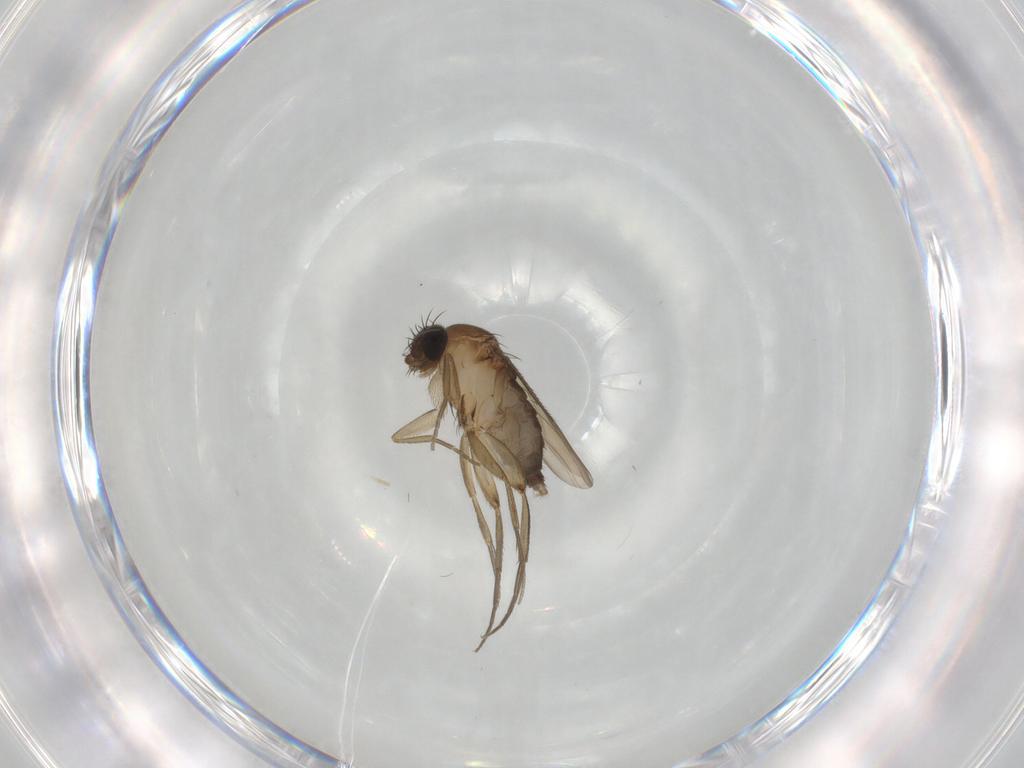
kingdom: Animalia
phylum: Arthropoda
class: Insecta
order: Diptera
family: Phoridae
